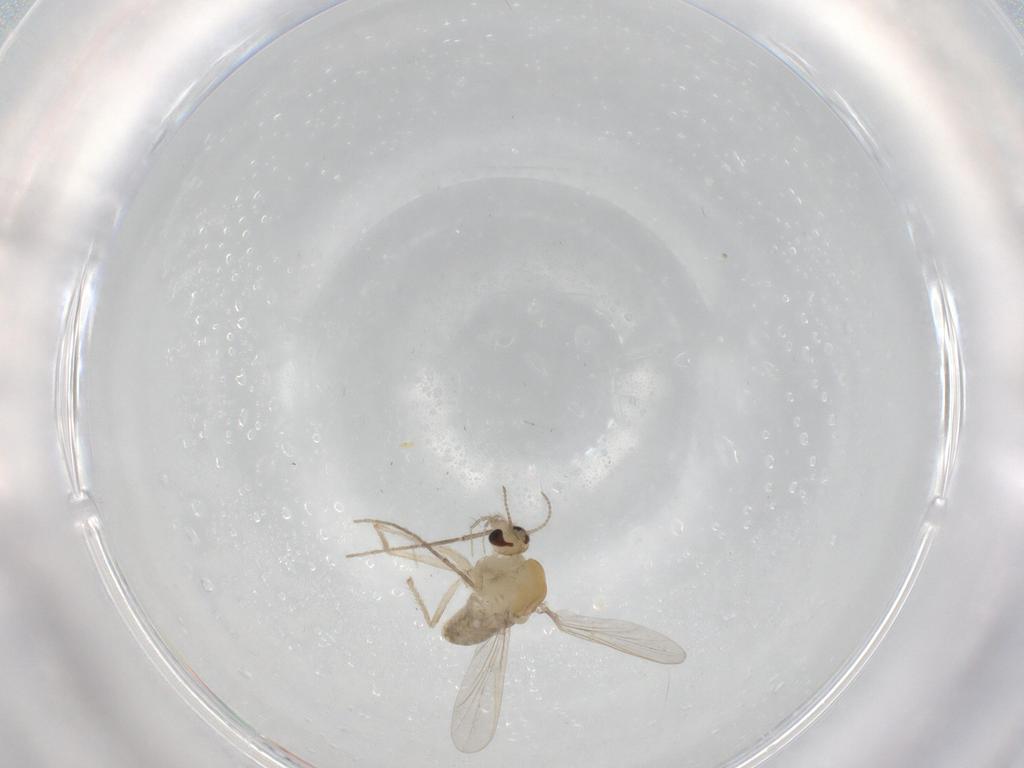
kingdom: Animalia
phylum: Arthropoda
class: Insecta
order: Diptera
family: Chironomidae
